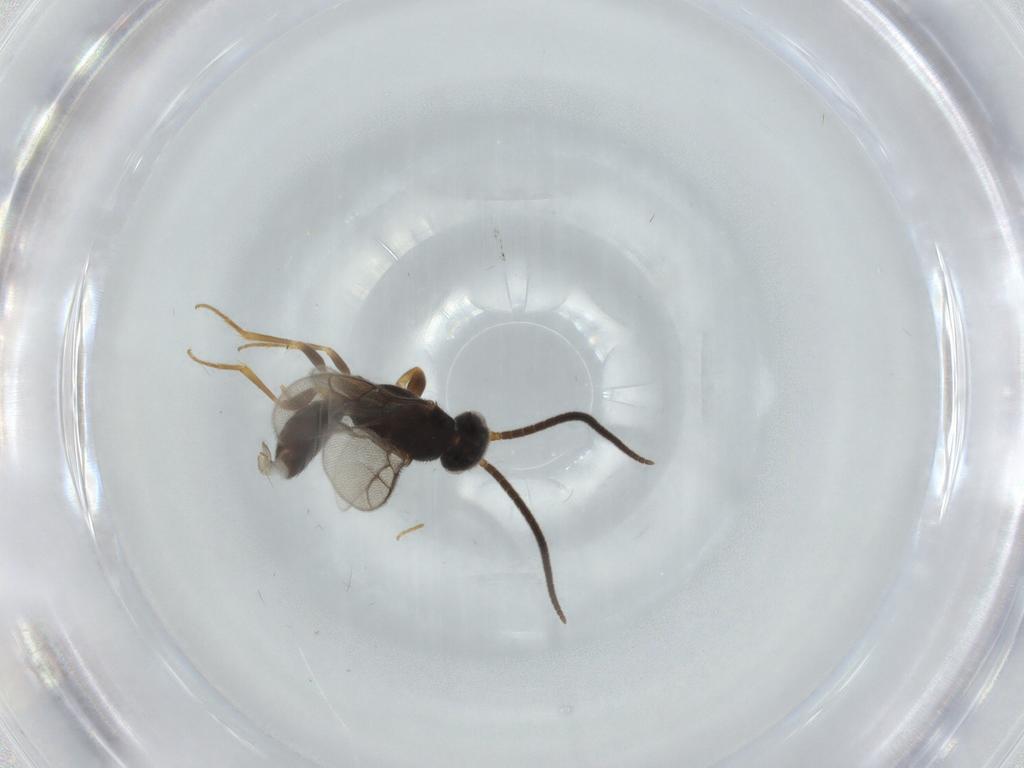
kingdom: Animalia
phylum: Arthropoda
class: Insecta
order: Hymenoptera
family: Sclerogibbidae
